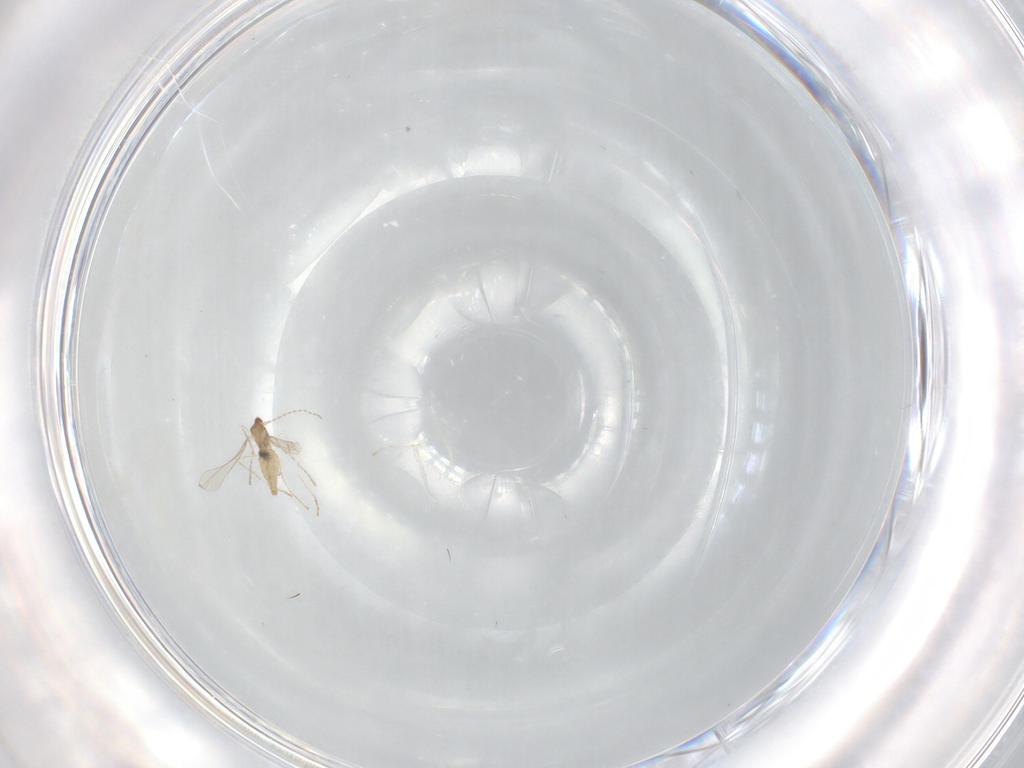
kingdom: Animalia
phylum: Arthropoda
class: Insecta
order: Diptera
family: Cecidomyiidae
